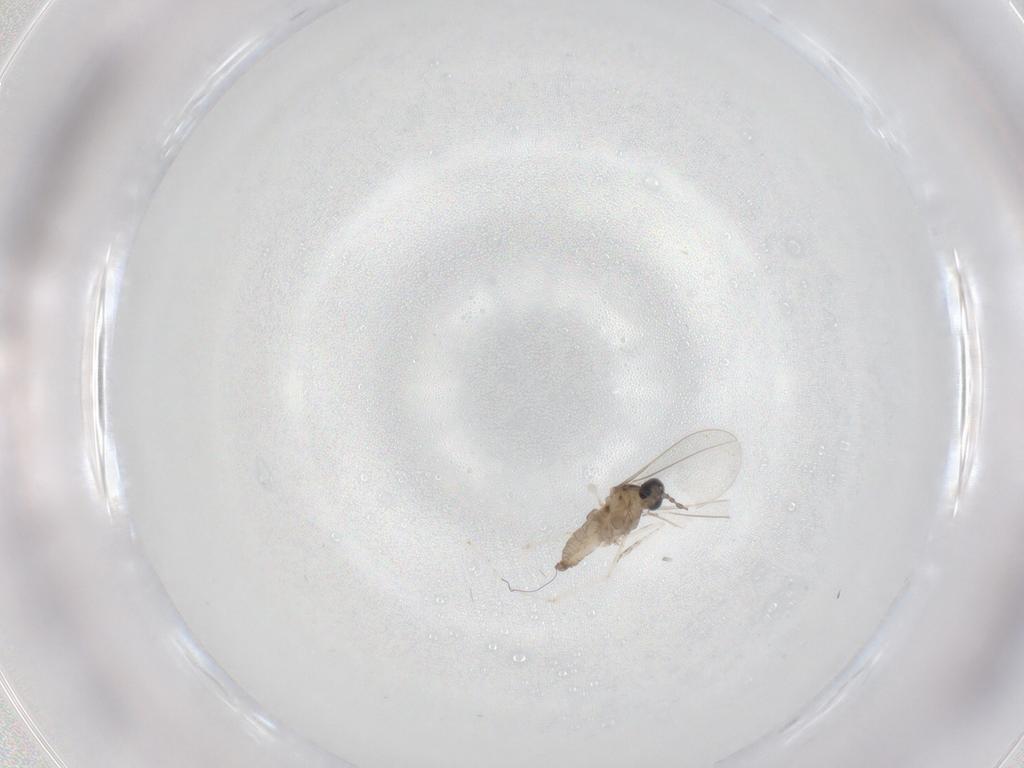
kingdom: Animalia
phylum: Arthropoda
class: Insecta
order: Diptera
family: Cecidomyiidae
